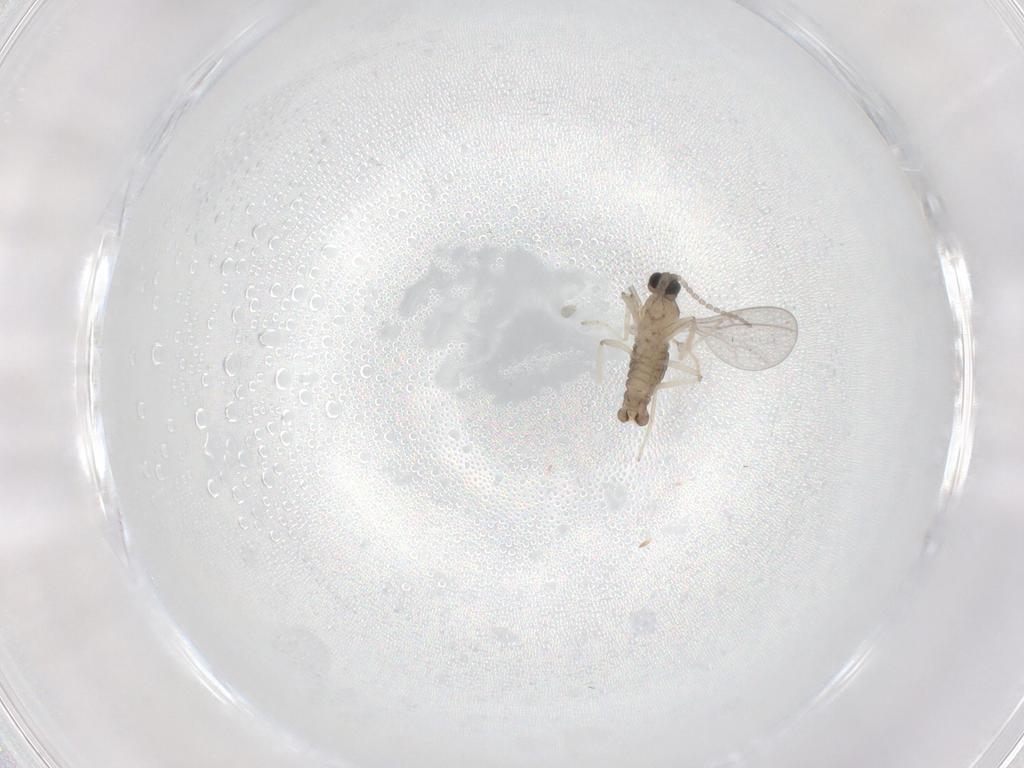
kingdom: Animalia
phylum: Arthropoda
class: Insecta
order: Diptera
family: Cecidomyiidae
